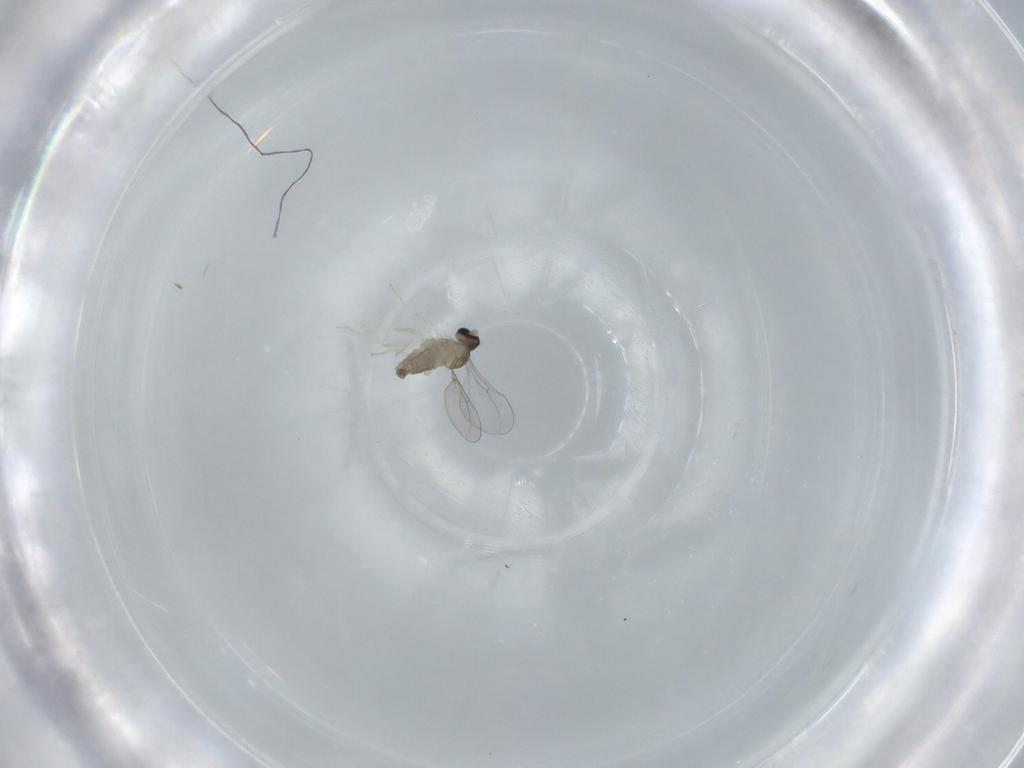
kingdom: Animalia
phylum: Arthropoda
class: Insecta
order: Diptera
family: Cecidomyiidae
